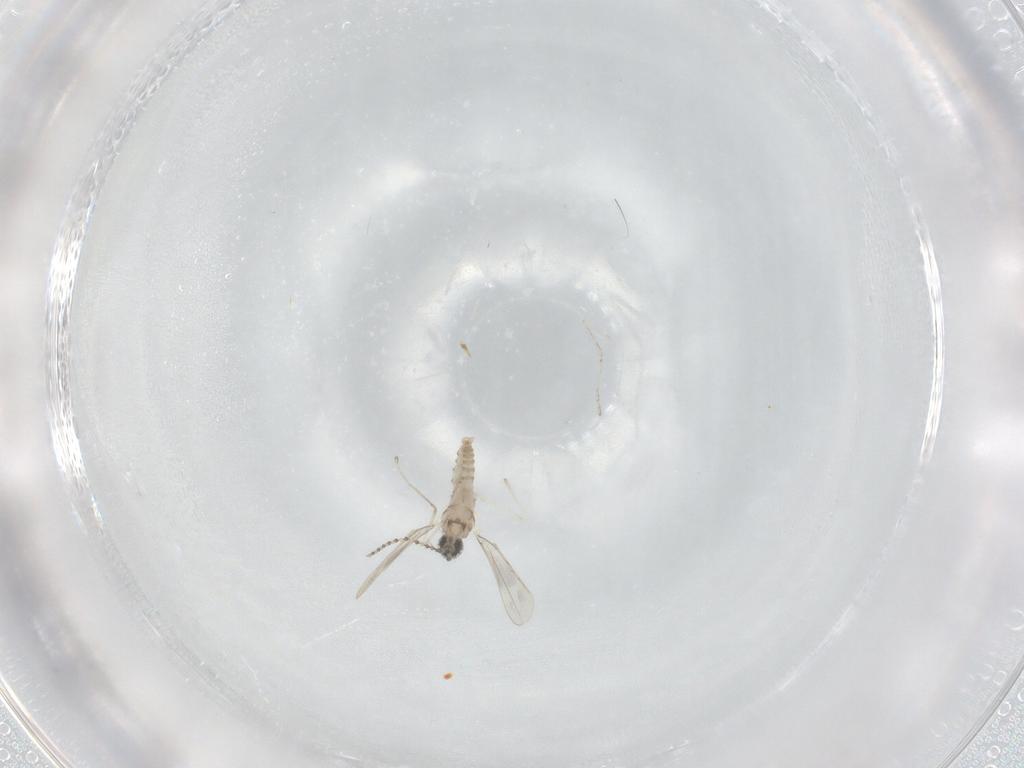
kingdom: Animalia
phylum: Arthropoda
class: Insecta
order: Diptera
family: Cecidomyiidae
